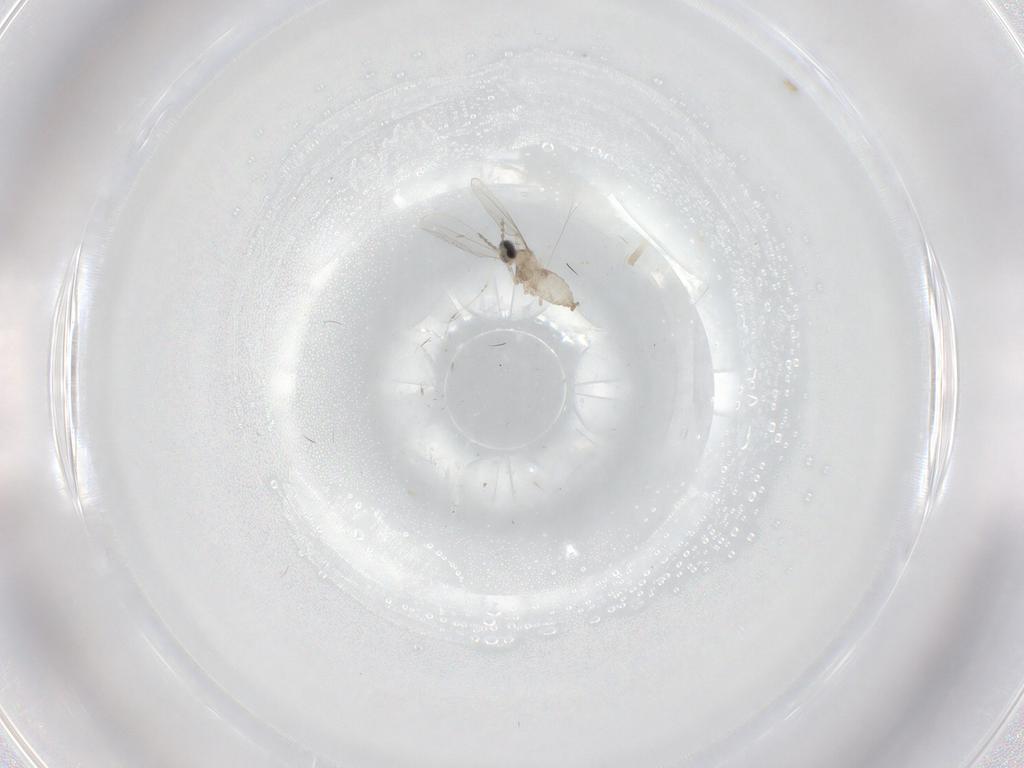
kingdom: Animalia
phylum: Arthropoda
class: Insecta
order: Diptera
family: Cecidomyiidae
